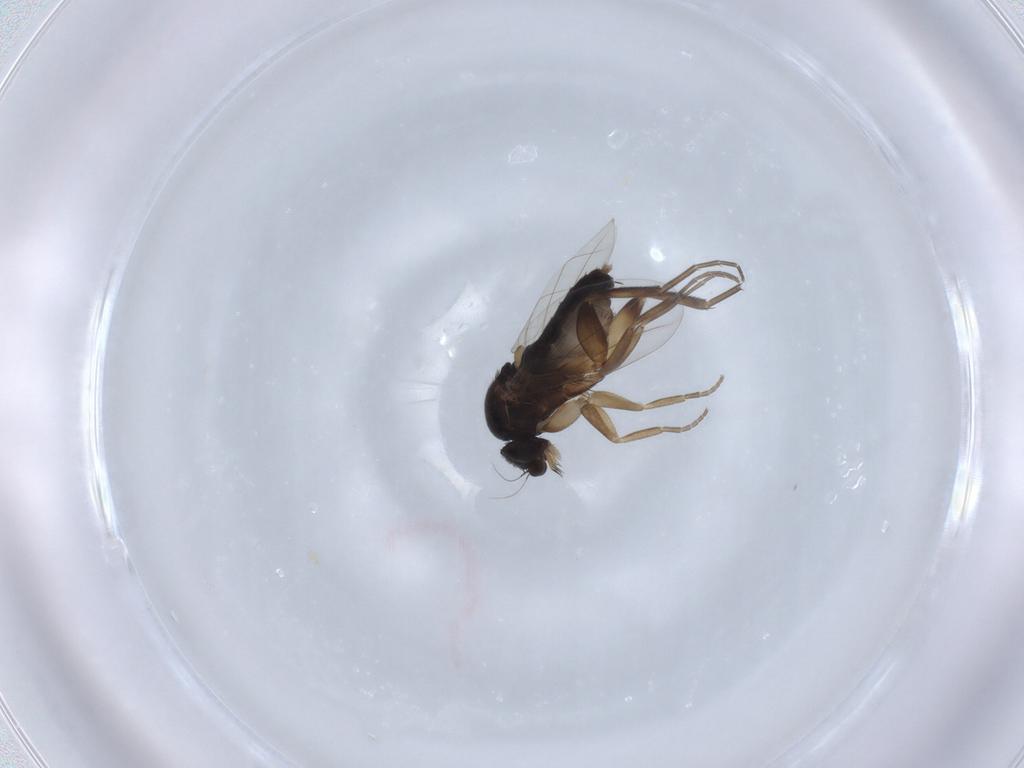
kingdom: Animalia
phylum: Arthropoda
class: Insecta
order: Diptera
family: Phoridae
